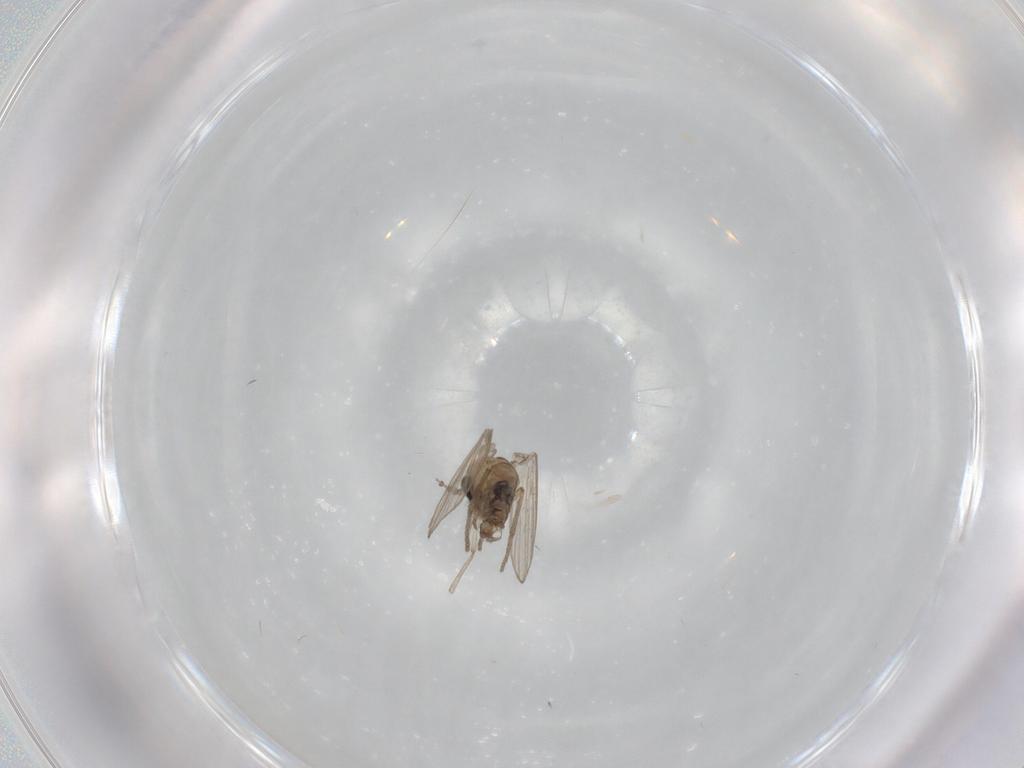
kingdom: Animalia
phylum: Arthropoda
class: Insecta
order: Diptera
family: Psychodidae
